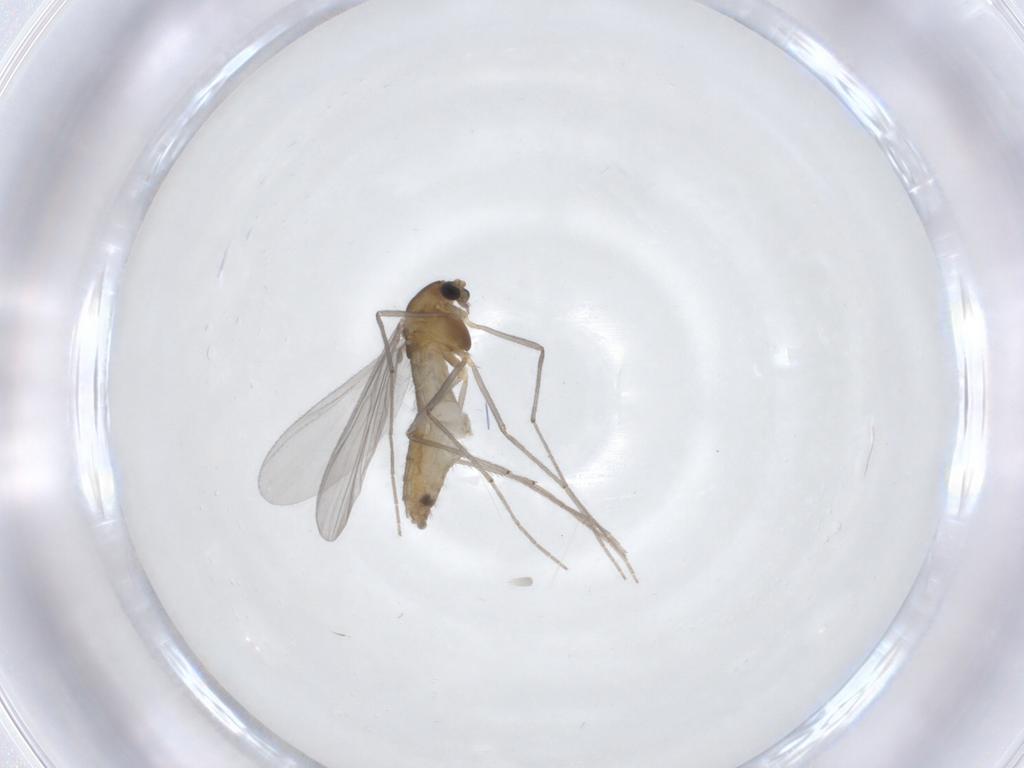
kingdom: Animalia
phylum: Arthropoda
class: Insecta
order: Diptera
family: Chironomidae
